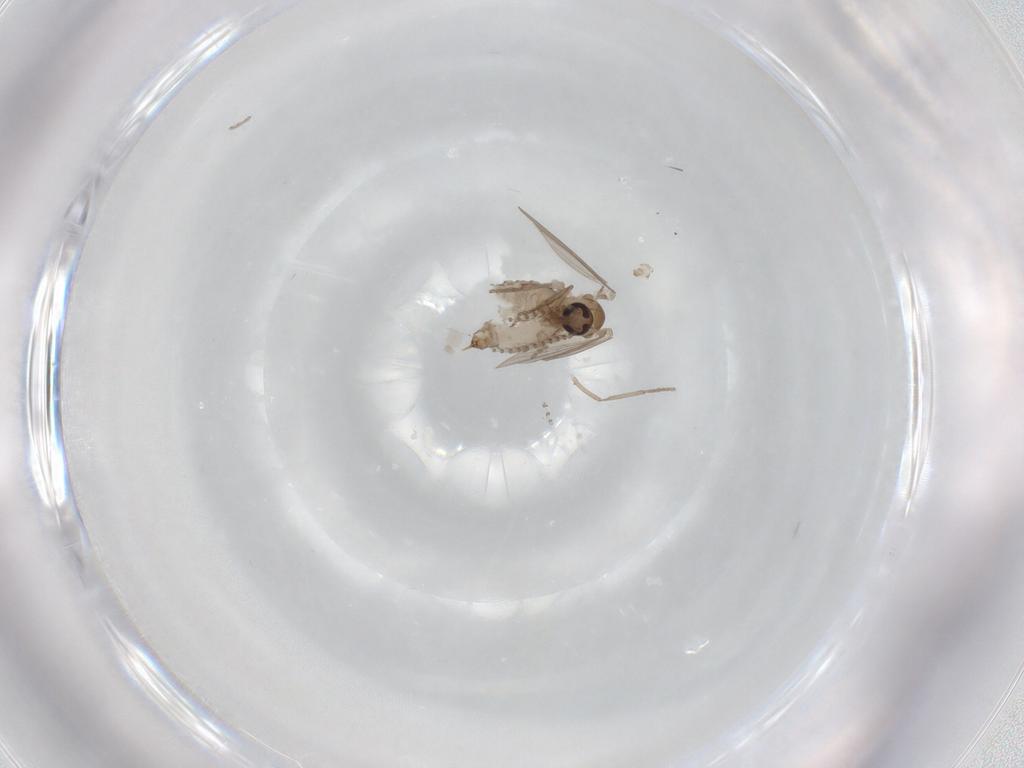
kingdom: Animalia
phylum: Arthropoda
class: Insecta
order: Diptera
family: Psychodidae
